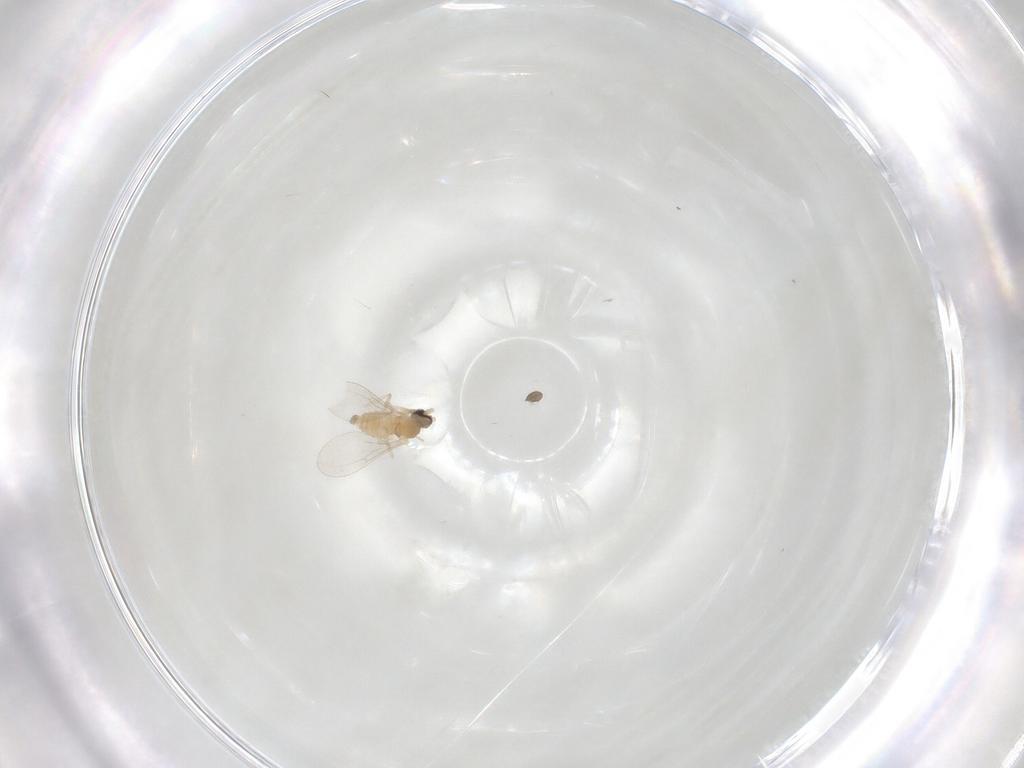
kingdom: Animalia
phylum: Arthropoda
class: Insecta
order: Diptera
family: Cecidomyiidae
